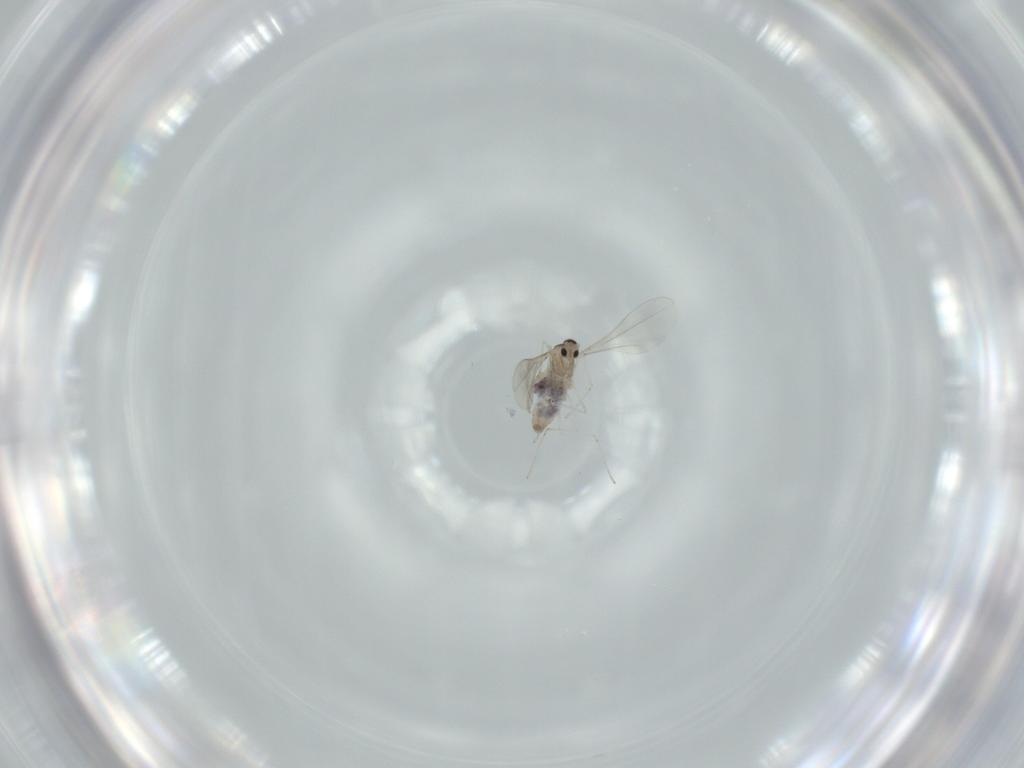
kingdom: Animalia
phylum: Arthropoda
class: Insecta
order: Diptera
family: Cecidomyiidae
